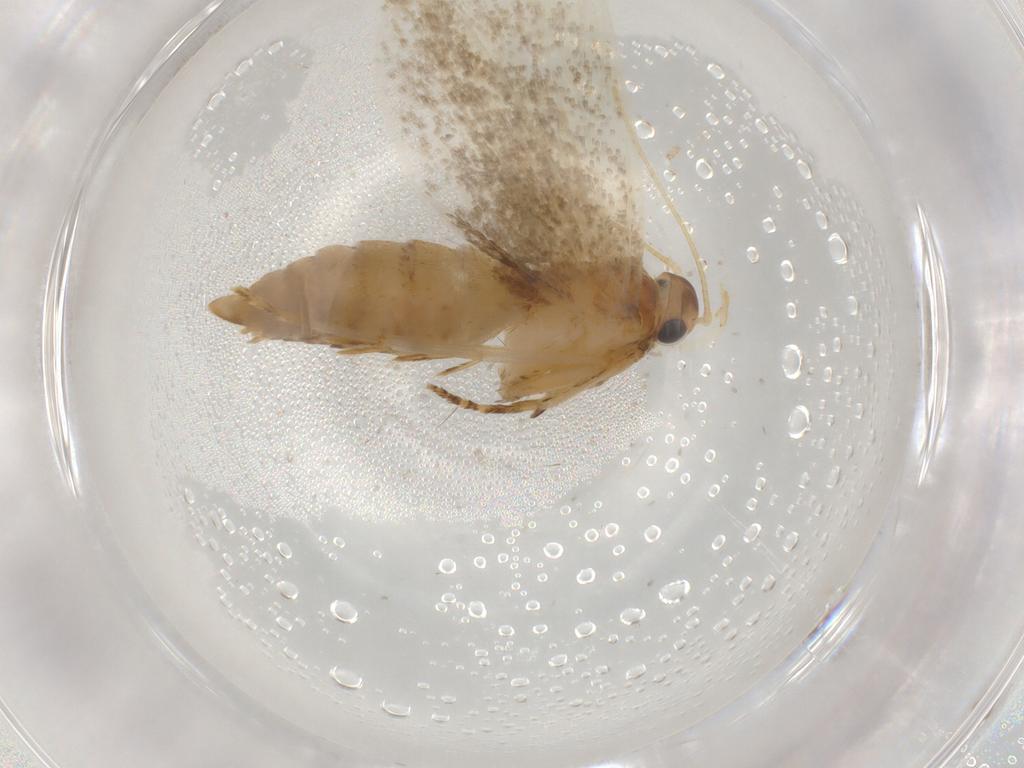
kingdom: Animalia
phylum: Arthropoda
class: Insecta
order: Lepidoptera
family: Gelechiidae
